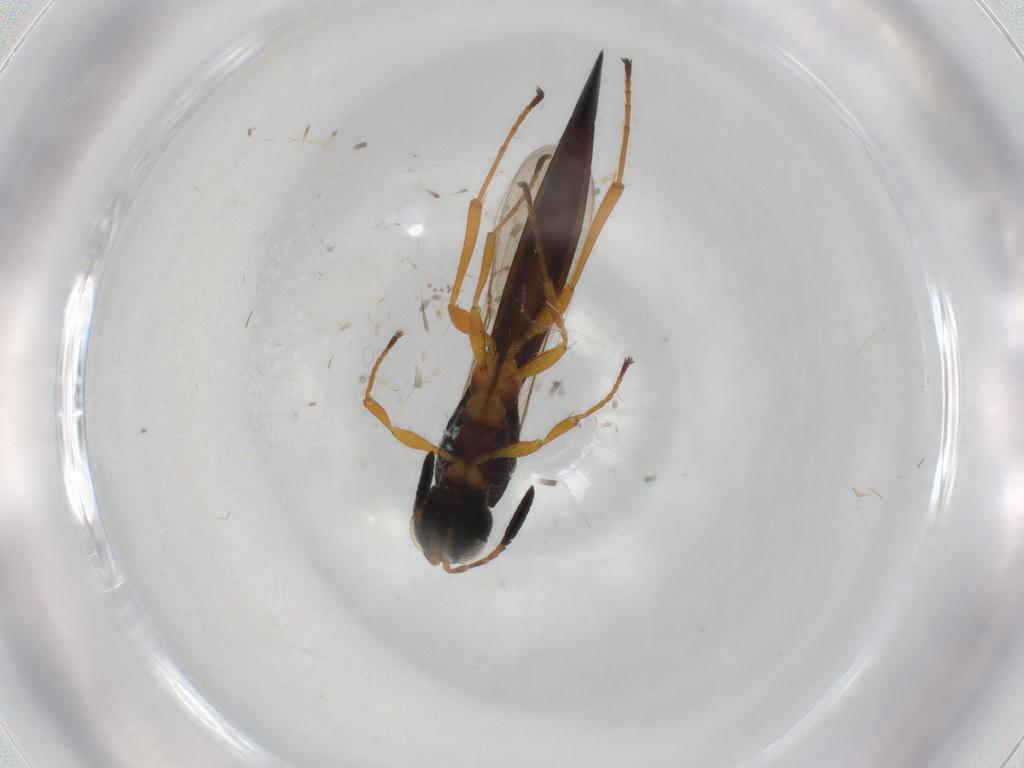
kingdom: Animalia
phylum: Arthropoda
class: Insecta
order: Hymenoptera
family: Scelionidae
